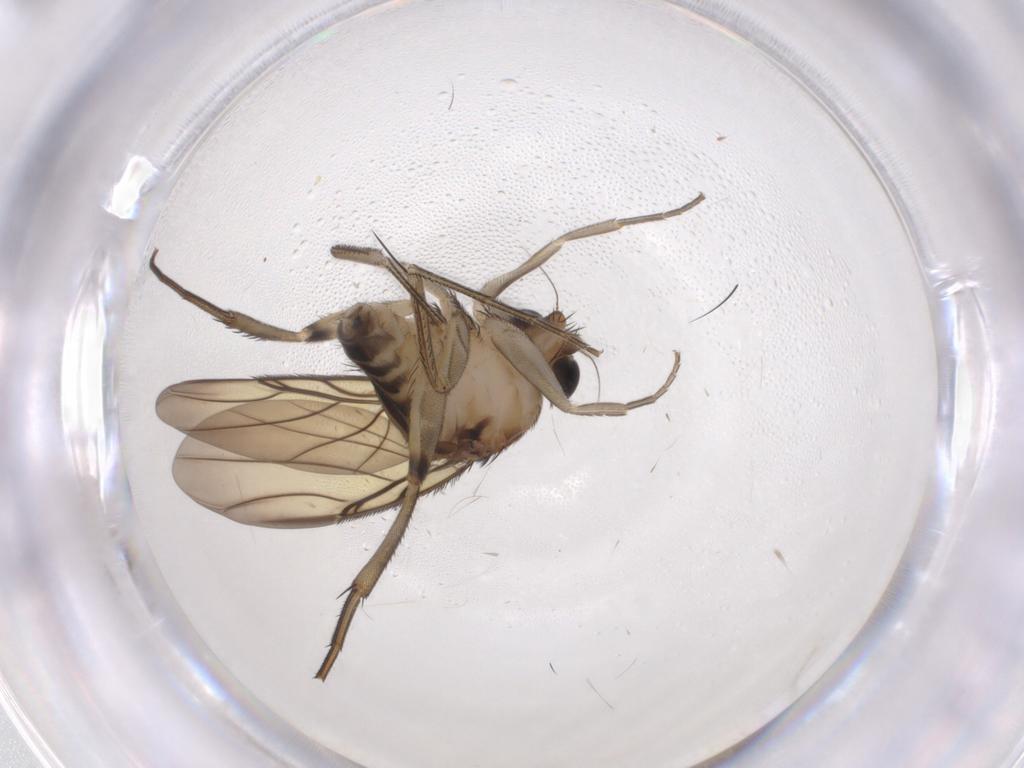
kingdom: Animalia
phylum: Arthropoda
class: Insecta
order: Diptera
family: Phoridae
